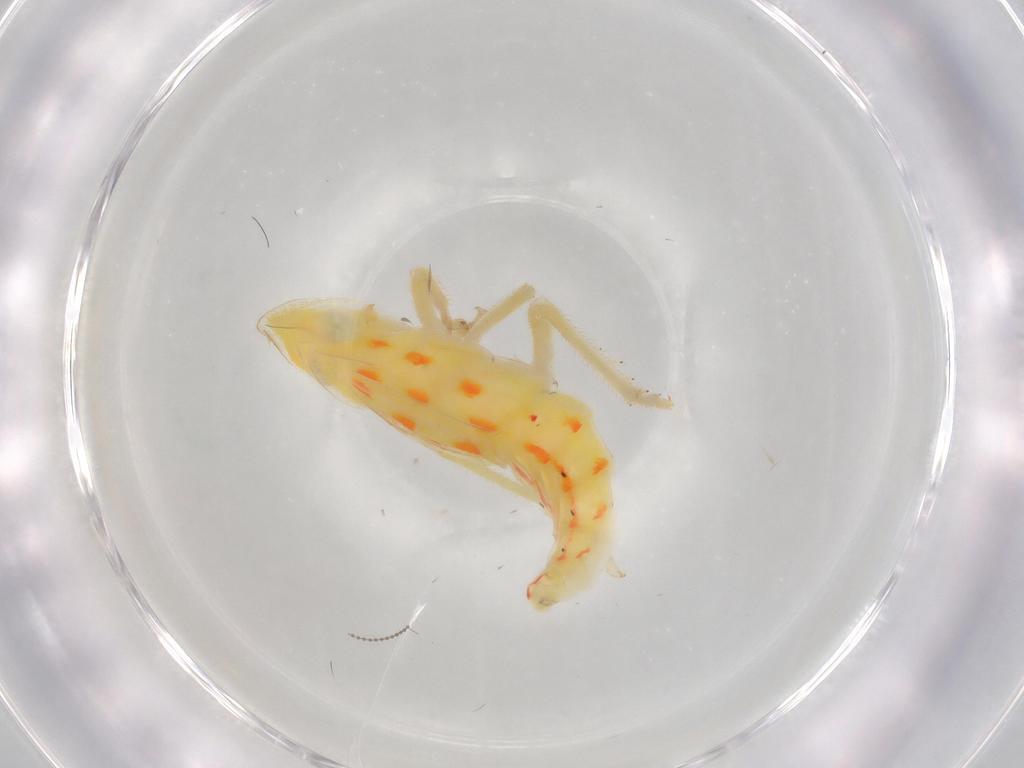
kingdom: Animalia
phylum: Arthropoda
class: Insecta
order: Hemiptera
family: Tropiduchidae
